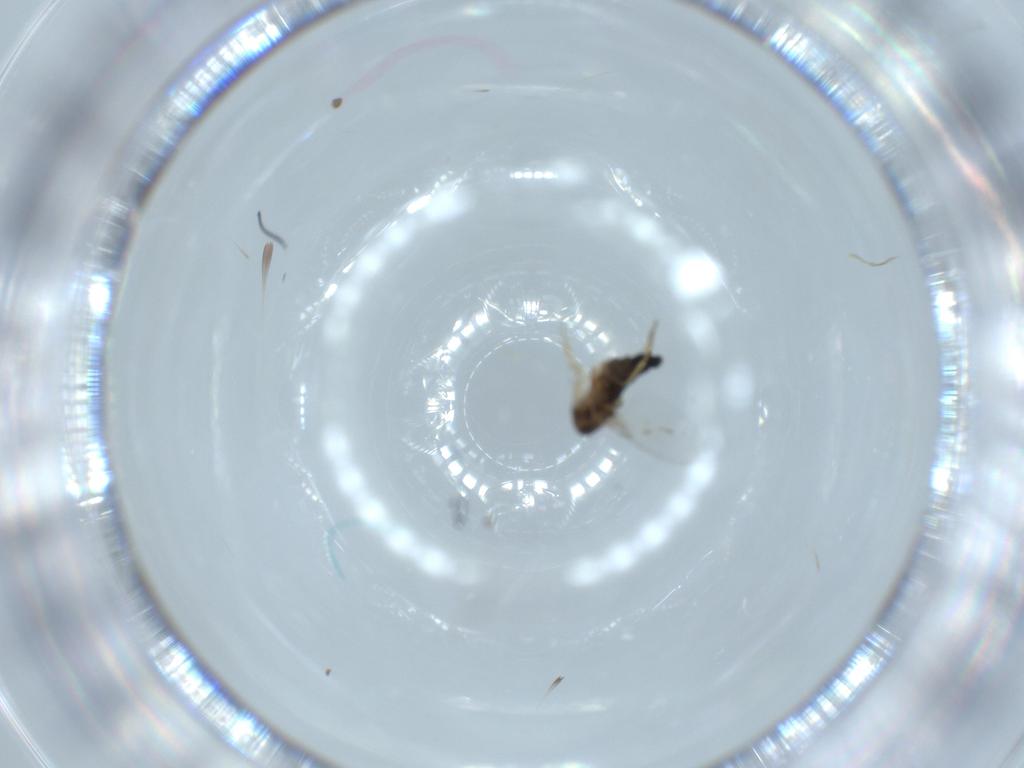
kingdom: Animalia
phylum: Arthropoda
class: Insecta
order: Diptera
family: Phoridae
